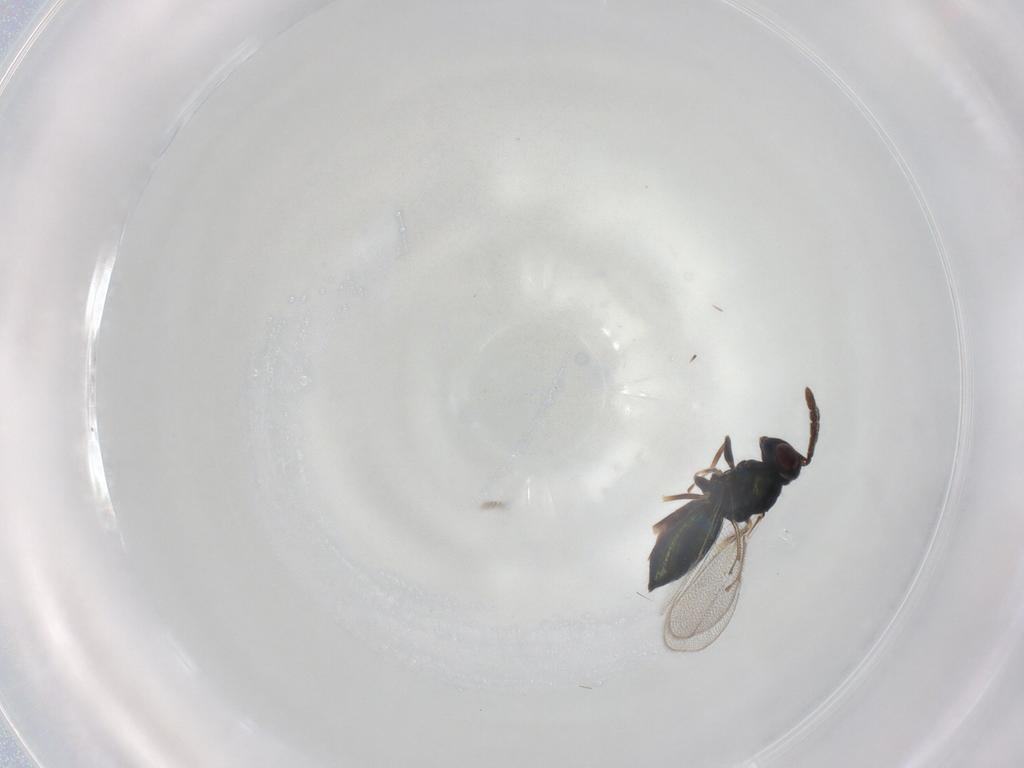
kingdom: Animalia
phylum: Arthropoda
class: Insecta
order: Hymenoptera
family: Eulophidae
